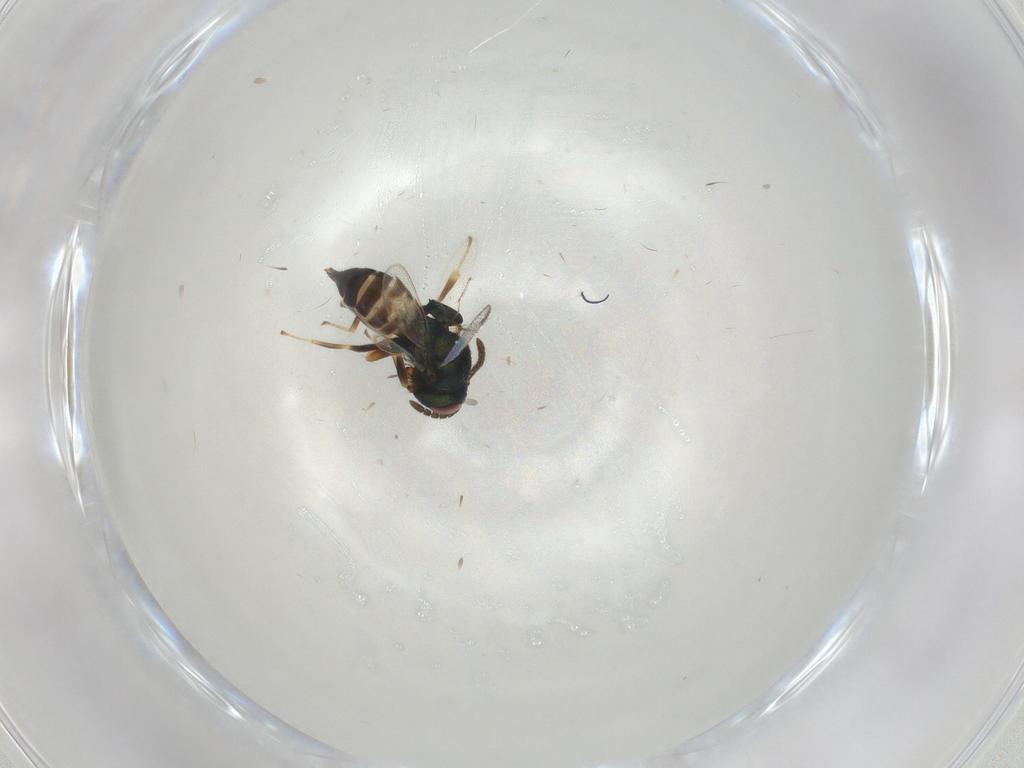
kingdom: Animalia
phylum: Arthropoda
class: Insecta
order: Hymenoptera
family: Pteromalidae
